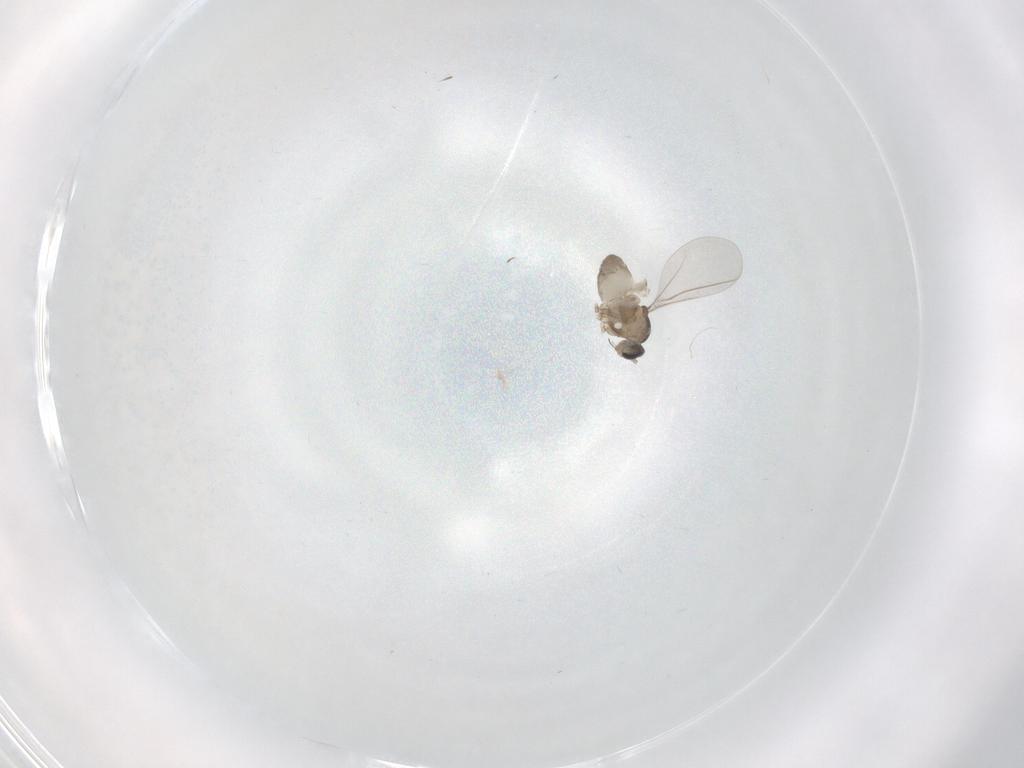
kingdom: Animalia
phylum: Arthropoda
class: Insecta
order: Diptera
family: Cecidomyiidae
